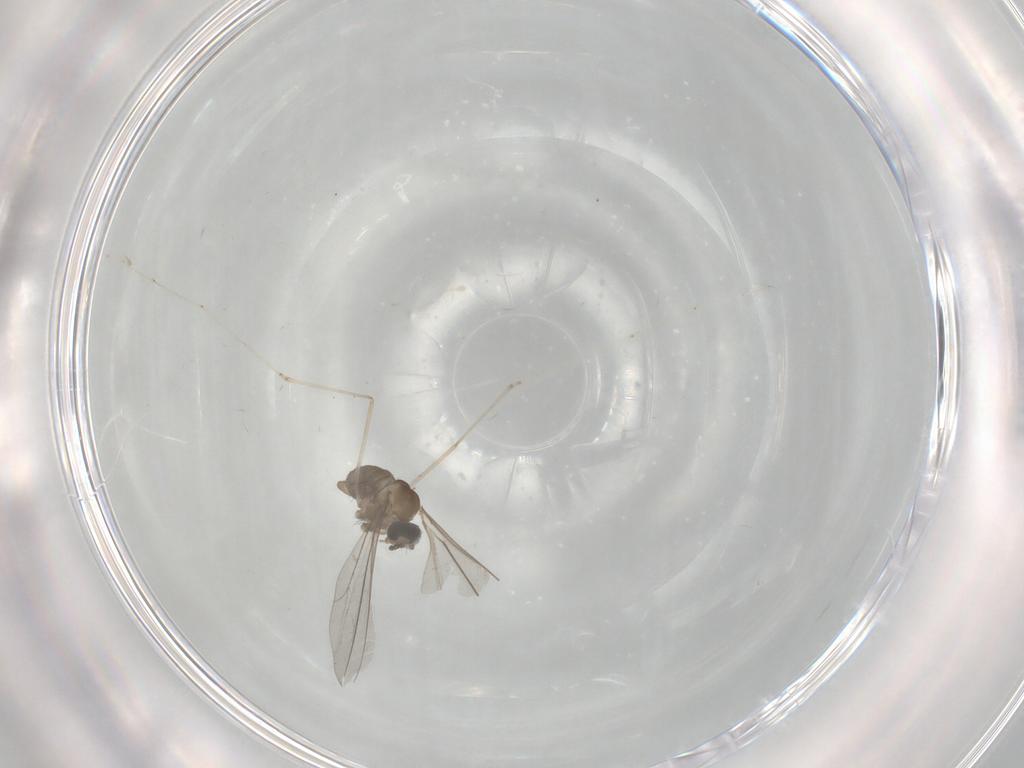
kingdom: Animalia
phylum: Arthropoda
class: Insecta
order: Diptera
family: Cecidomyiidae
